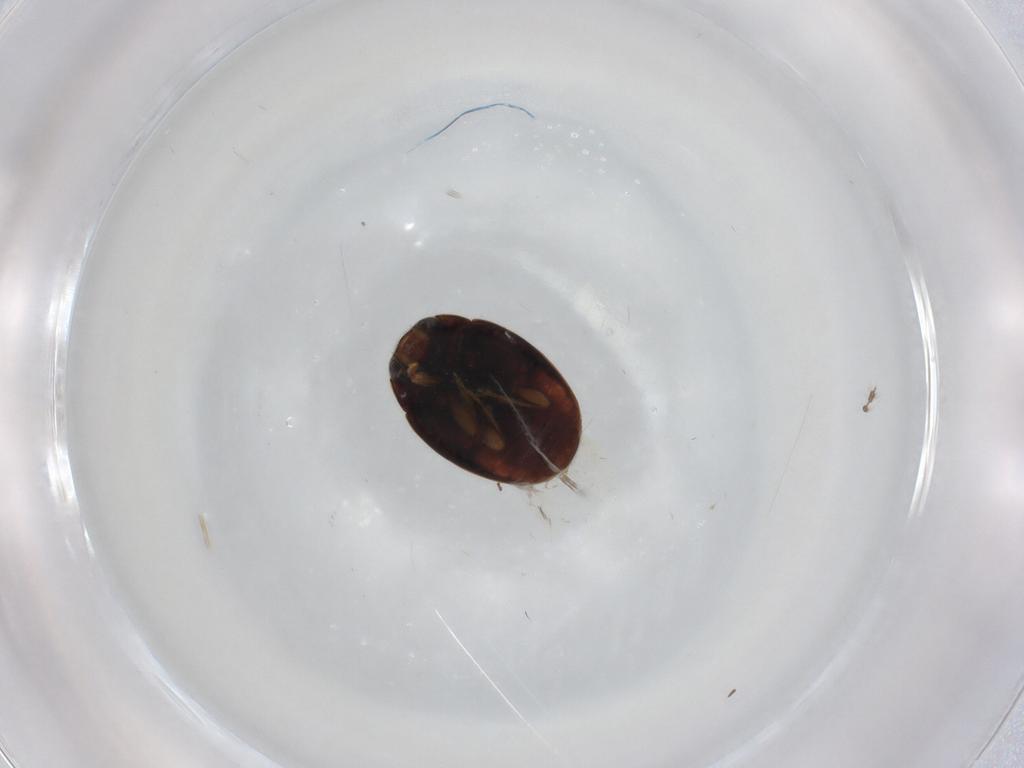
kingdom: Animalia
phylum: Arthropoda
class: Insecta
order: Coleoptera
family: Coccinellidae
